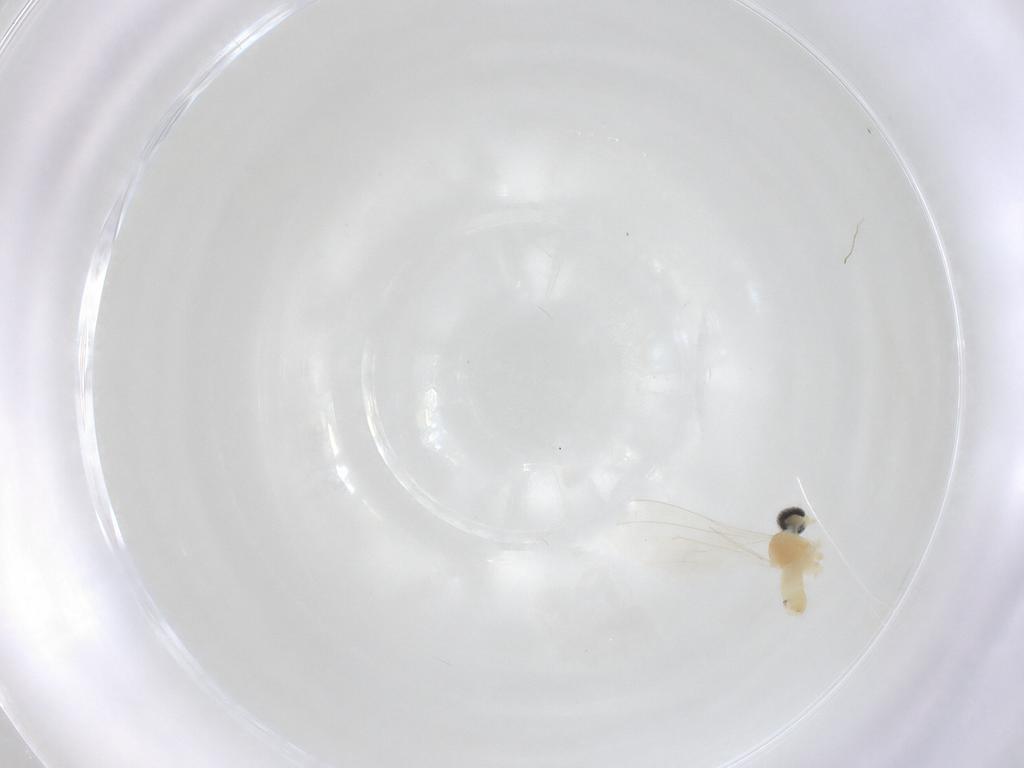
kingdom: Animalia
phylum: Arthropoda
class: Insecta
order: Diptera
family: Cecidomyiidae
